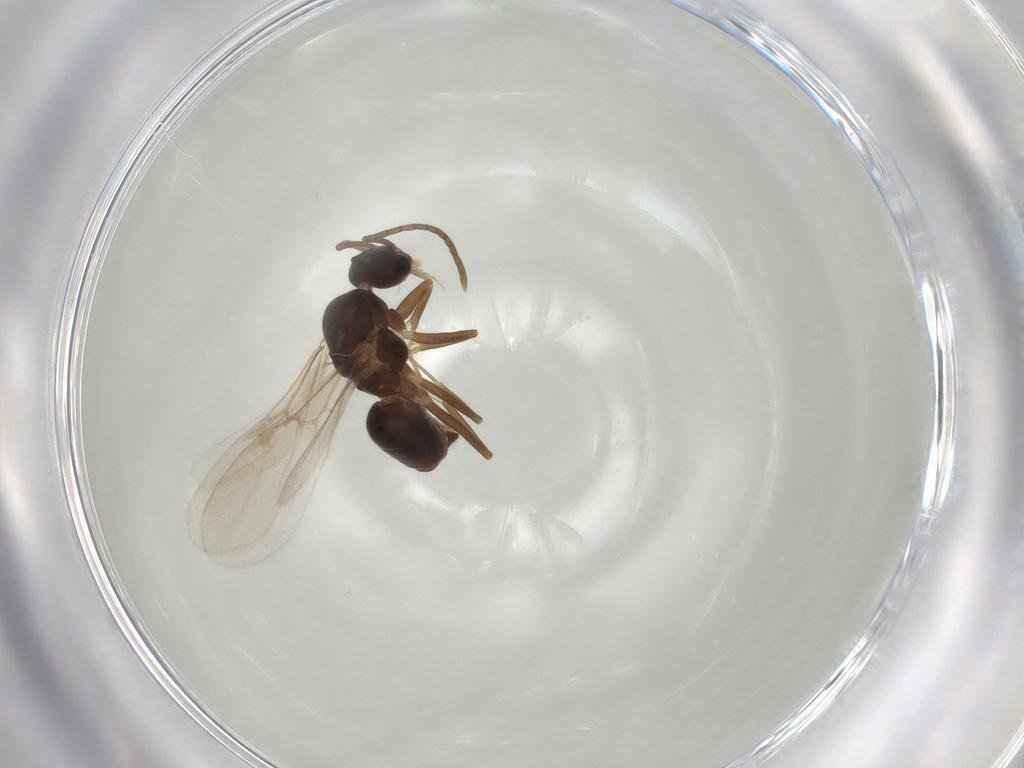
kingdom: Animalia
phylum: Arthropoda
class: Insecta
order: Hymenoptera
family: Formicidae
